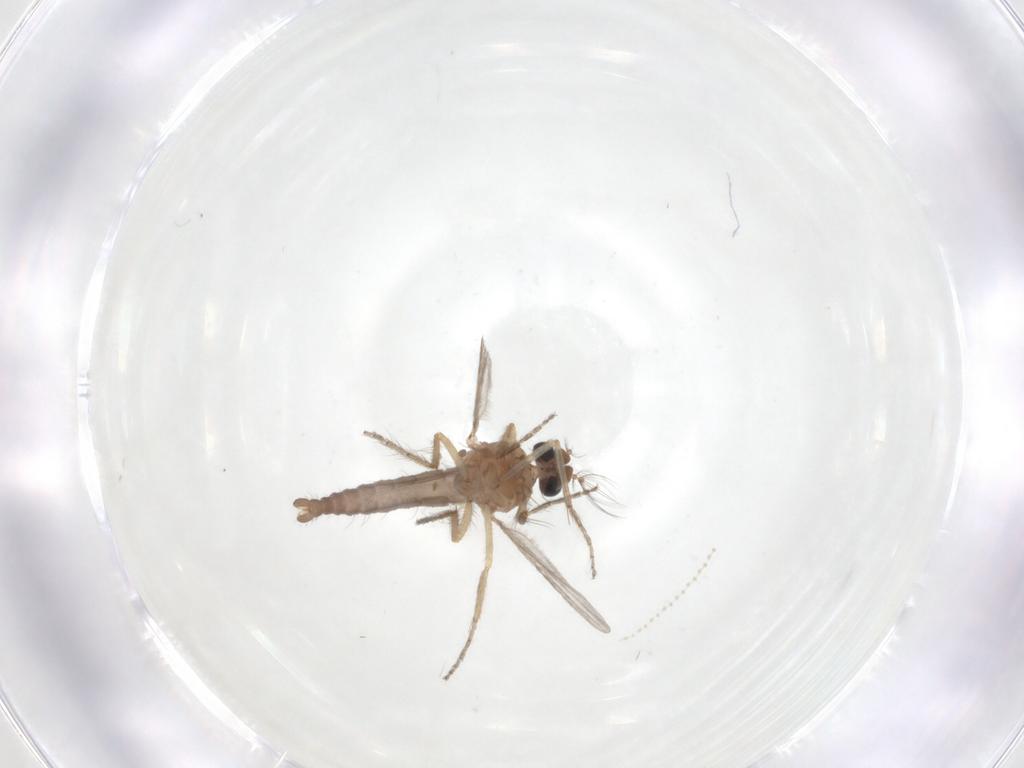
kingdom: Animalia
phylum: Arthropoda
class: Insecta
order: Diptera
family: Ceratopogonidae
